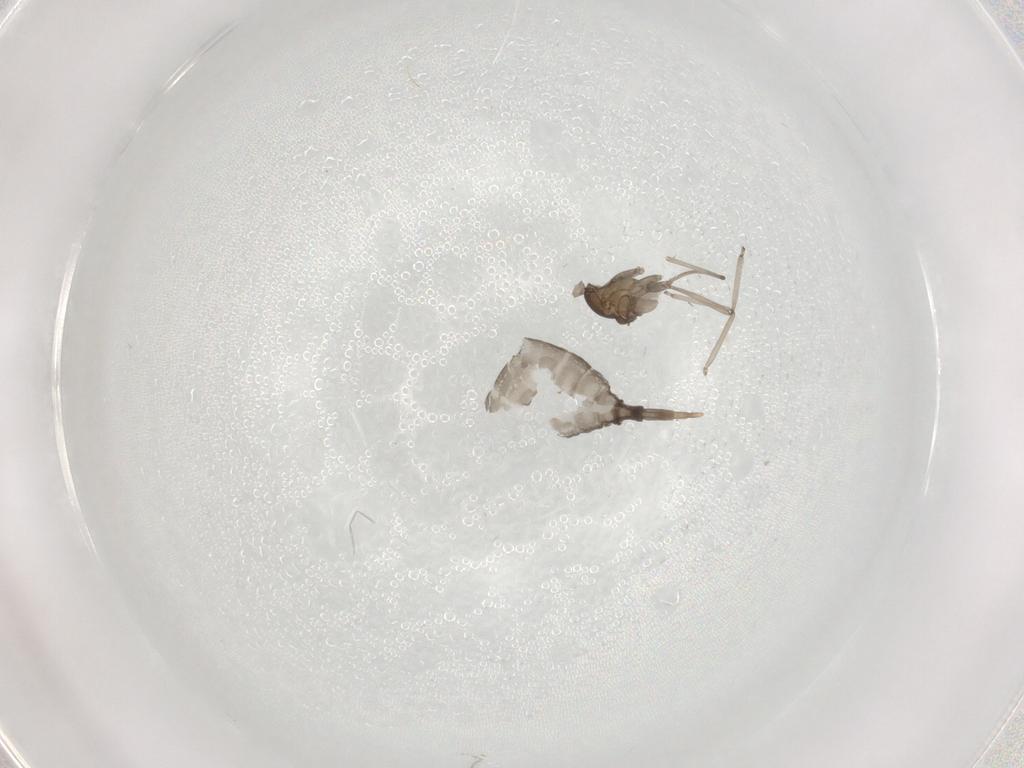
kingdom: Animalia
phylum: Arthropoda
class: Insecta
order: Diptera
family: Cecidomyiidae
